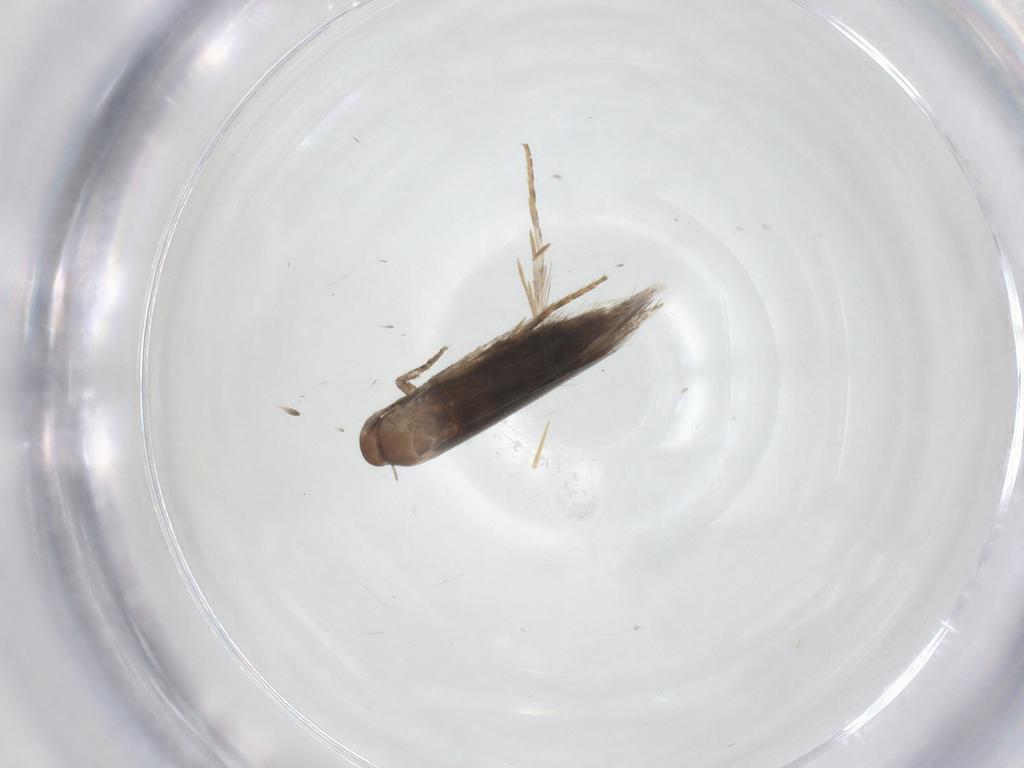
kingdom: Animalia
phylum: Arthropoda
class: Insecta
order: Lepidoptera
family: Elachistidae
